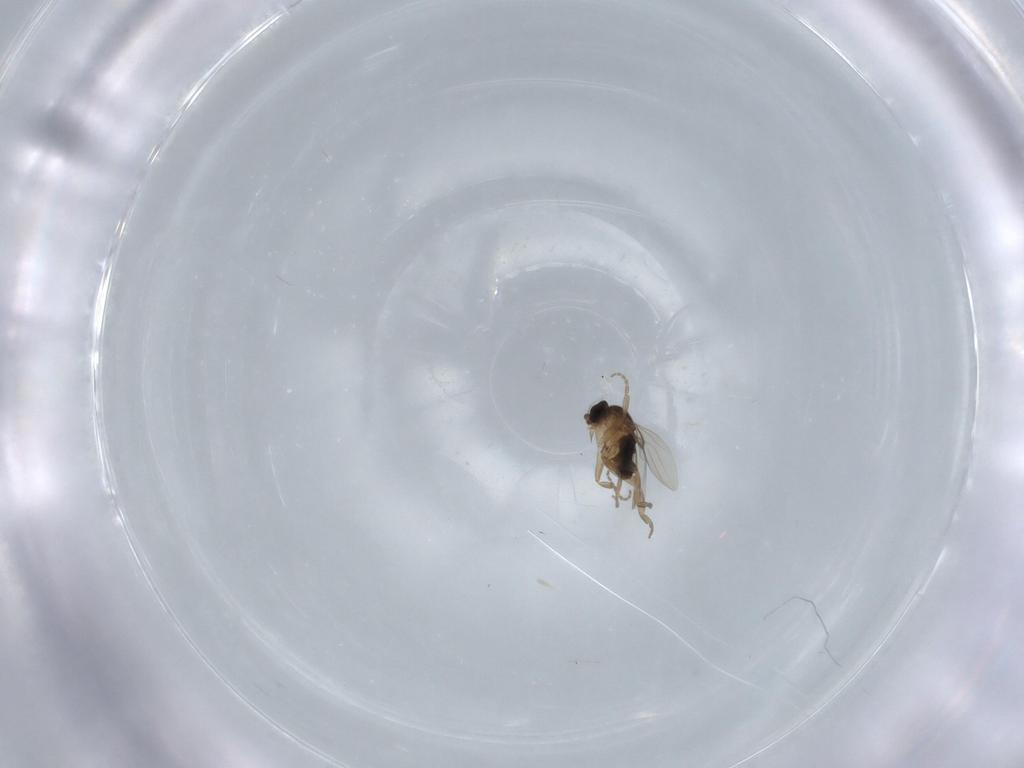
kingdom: Animalia
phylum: Arthropoda
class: Insecta
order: Diptera
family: Phoridae
